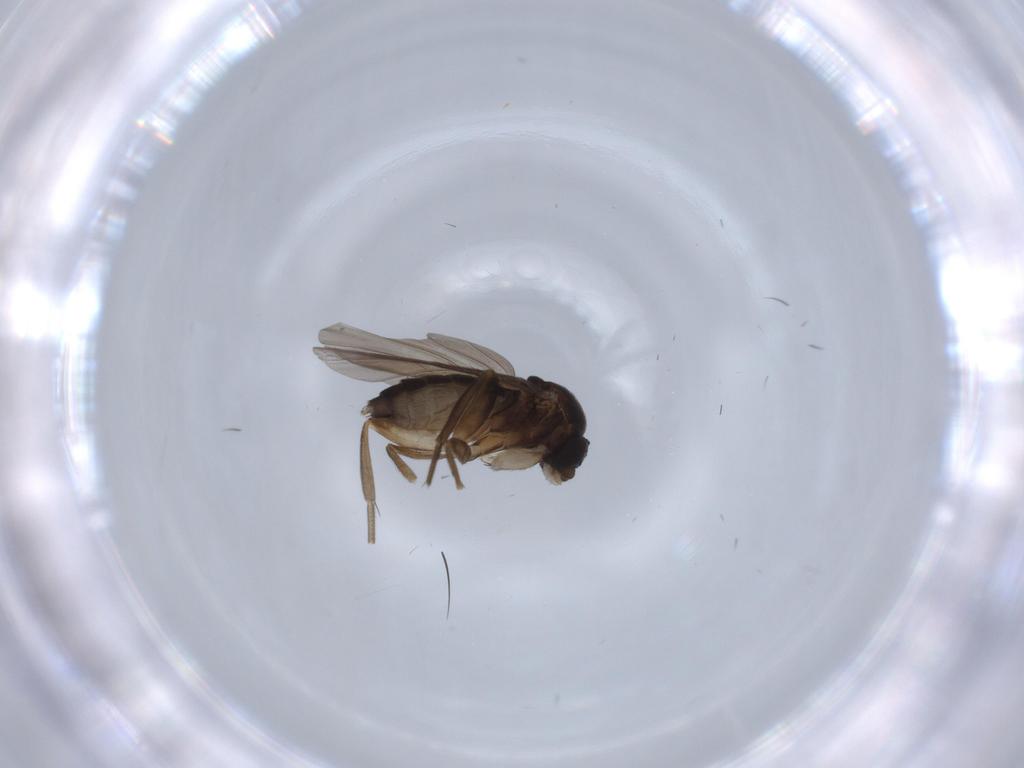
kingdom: Animalia
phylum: Arthropoda
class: Insecta
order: Diptera
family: Phoridae
